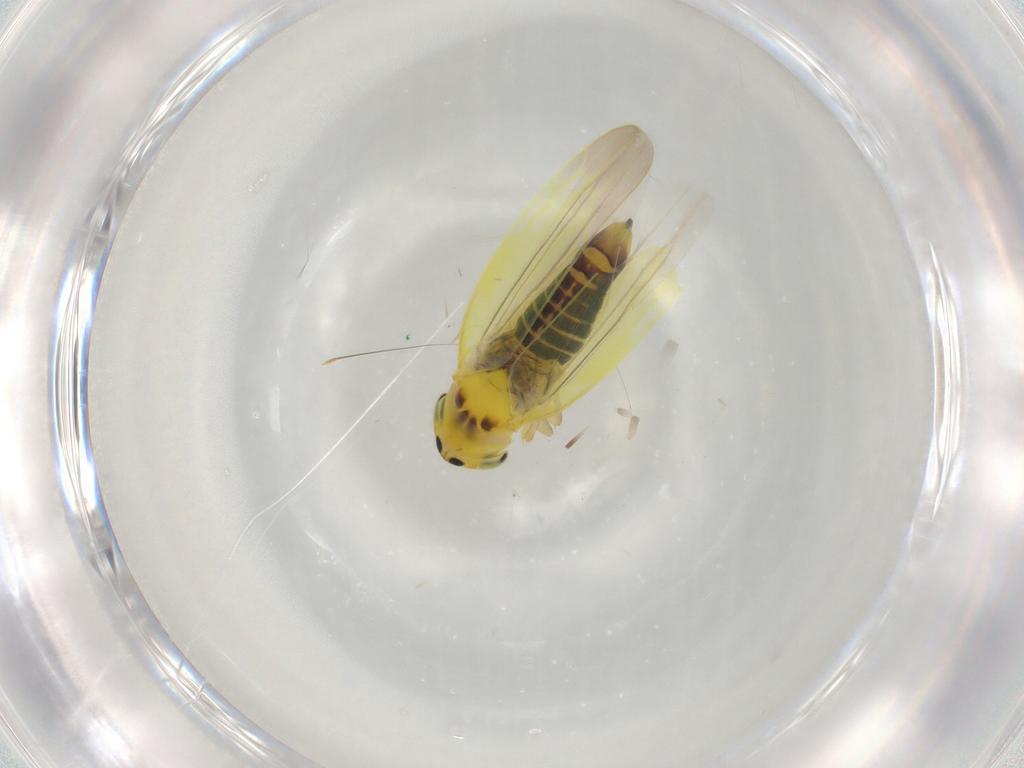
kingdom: Animalia
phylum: Arthropoda
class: Insecta
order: Hemiptera
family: Cicadellidae
